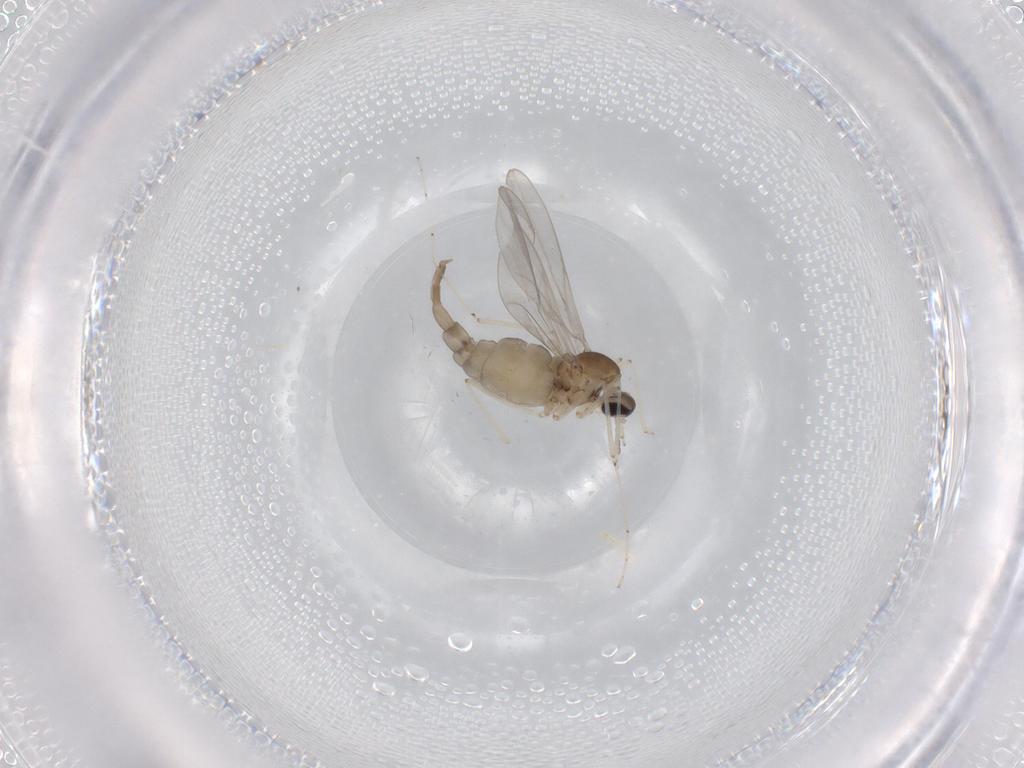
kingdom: Animalia
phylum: Arthropoda
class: Insecta
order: Diptera
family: Cecidomyiidae
